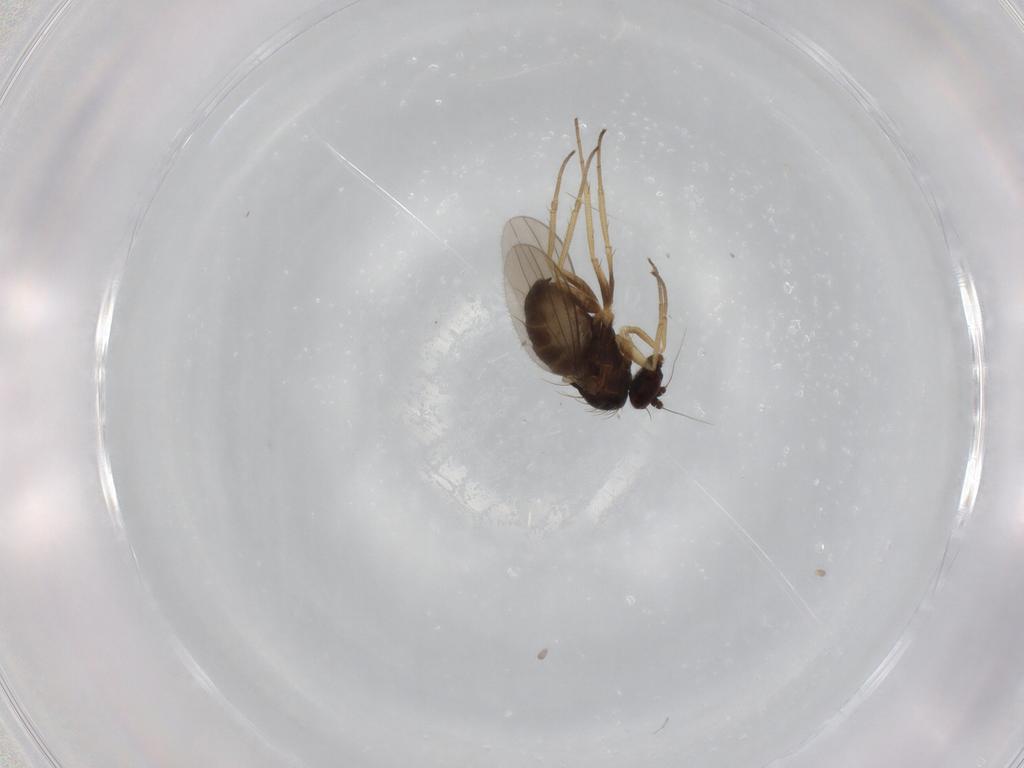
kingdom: Animalia
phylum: Arthropoda
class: Insecta
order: Diptera
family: Dolichopodidae
